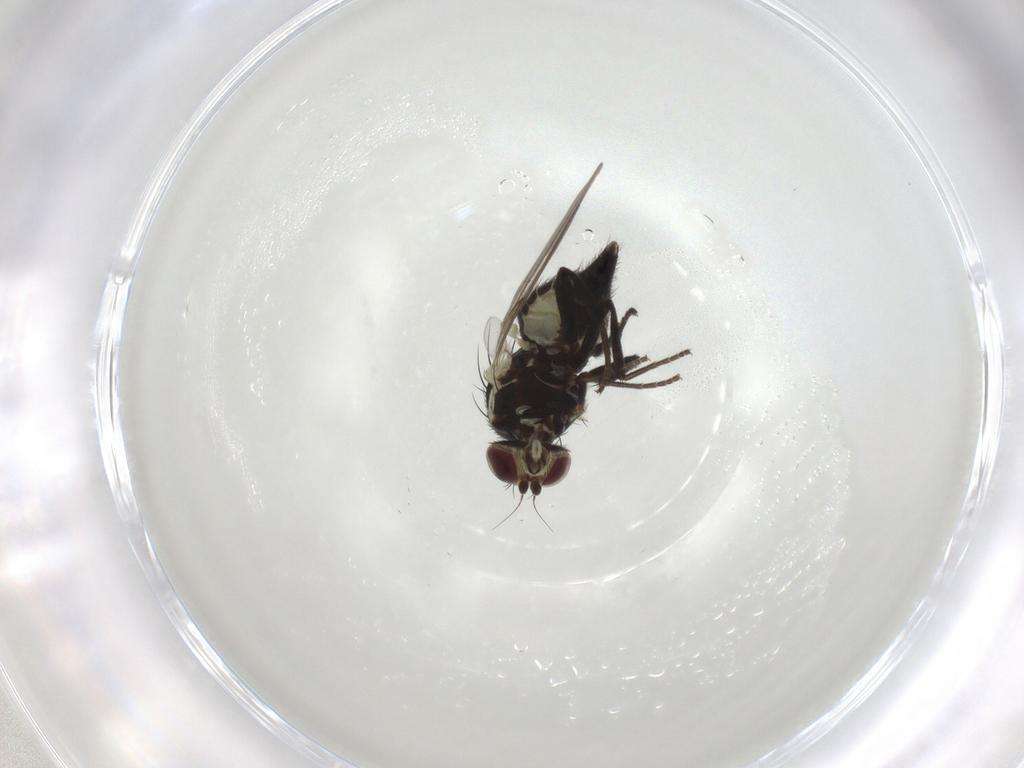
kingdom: Animalia
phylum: Arthropoda
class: Insecta
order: Diptera
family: Agromyzidae
